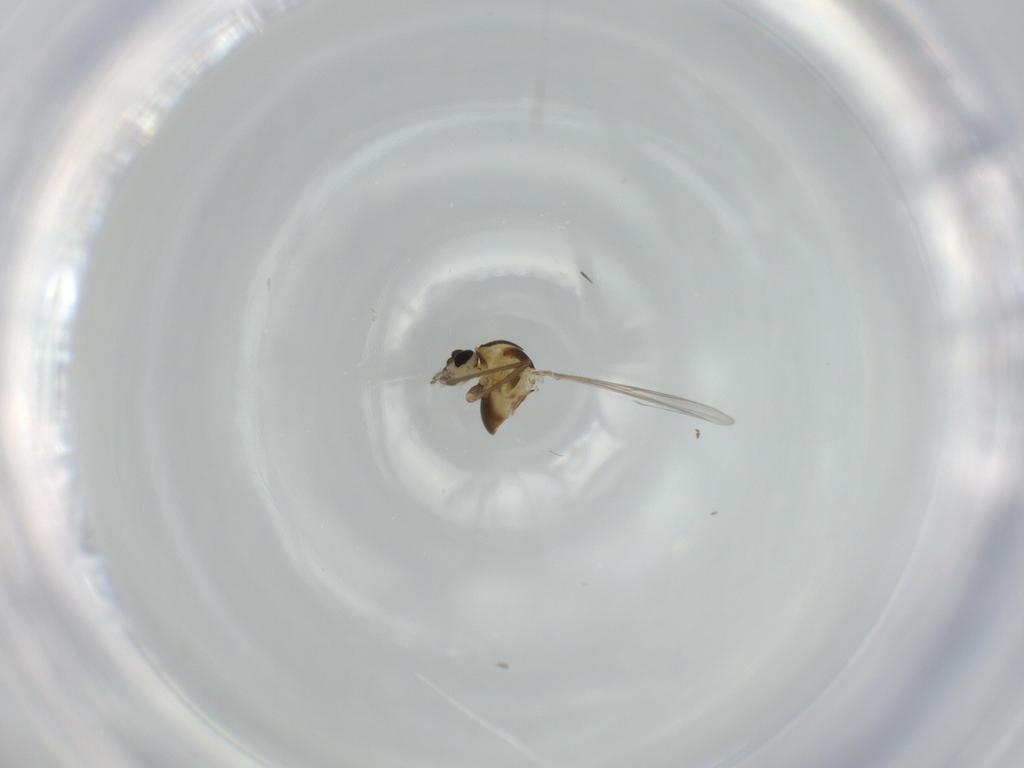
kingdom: Animalia
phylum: Arthropoda
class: Insecta
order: Diptera
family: Chironomidae
